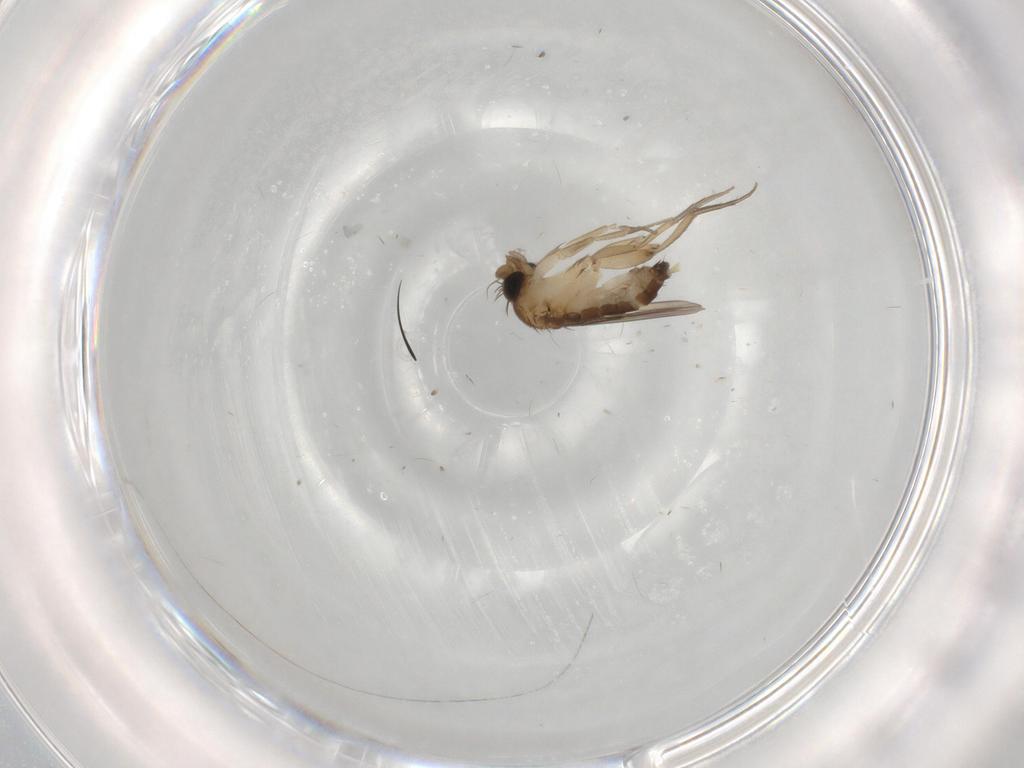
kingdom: Animalia
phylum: Arthropoda
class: Insecta
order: Diptera
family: Phoridae
